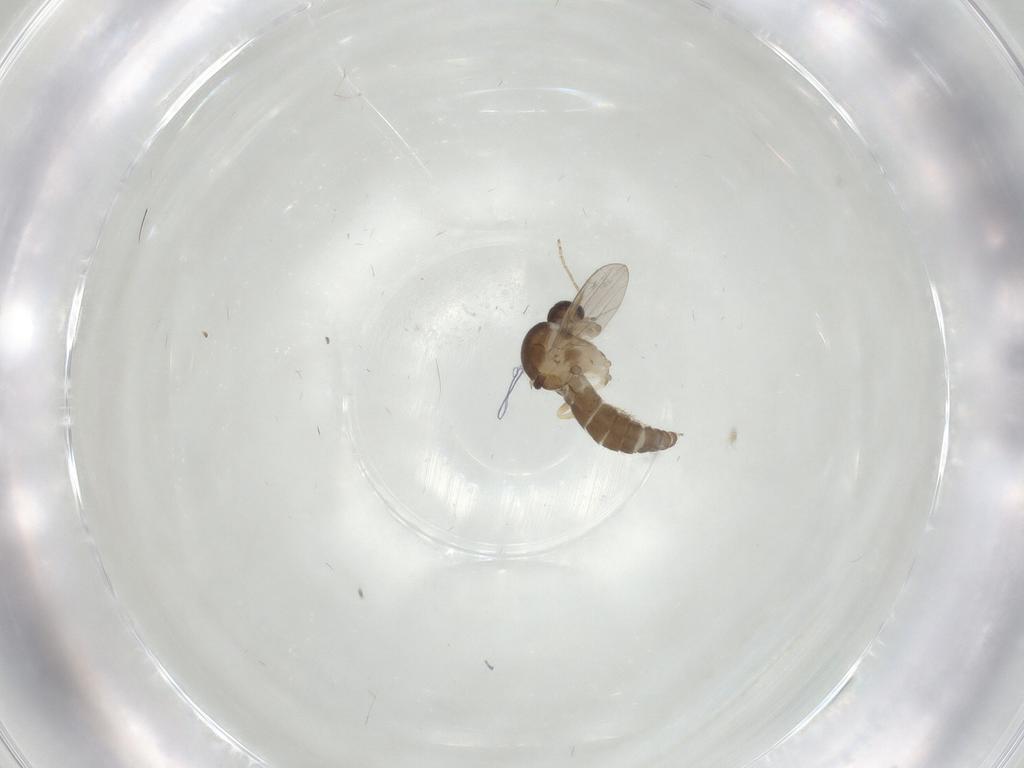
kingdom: Animalia
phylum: Arthropoda
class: Insecta
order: Diptera
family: Ceratopogonidae
